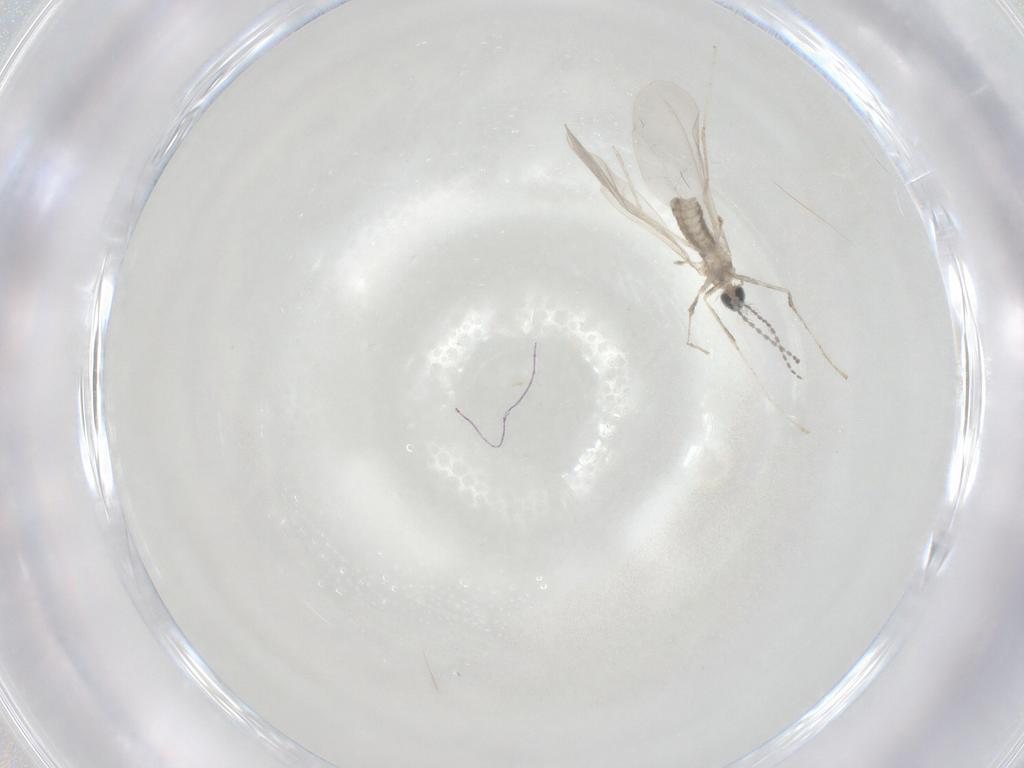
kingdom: Animalia
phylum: Arthropoda
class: Insecta
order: Diptera
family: Cecidomyiidae
